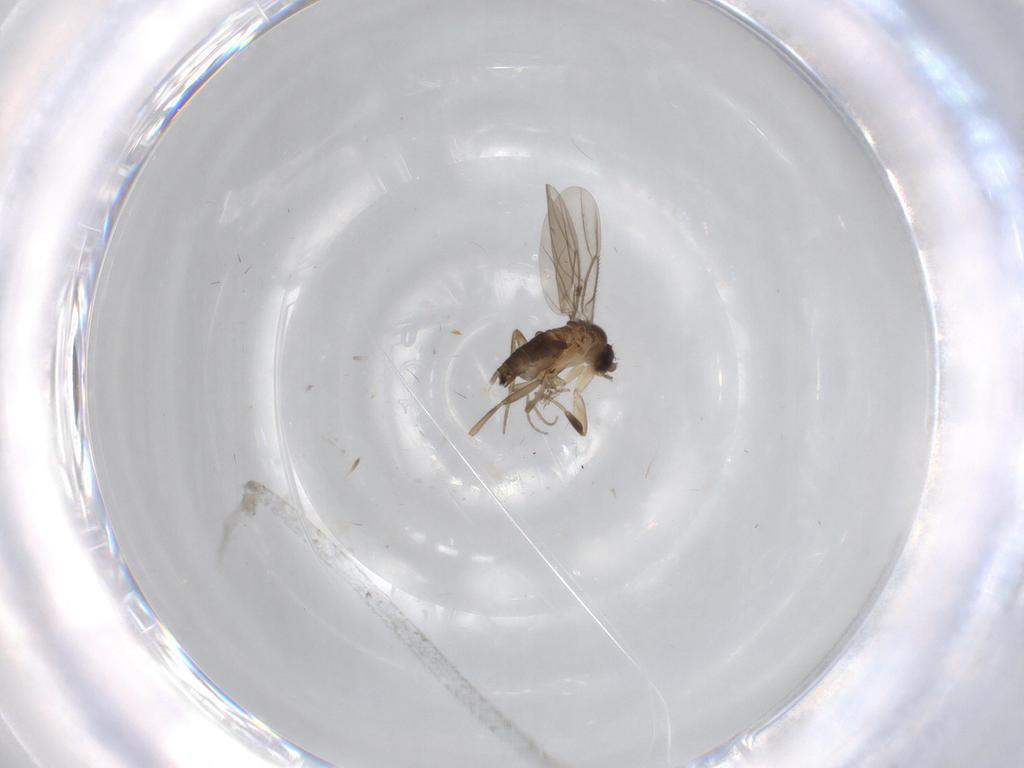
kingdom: Animalia
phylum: Arthropoda
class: Insecta
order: Diptera
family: Phoridae
